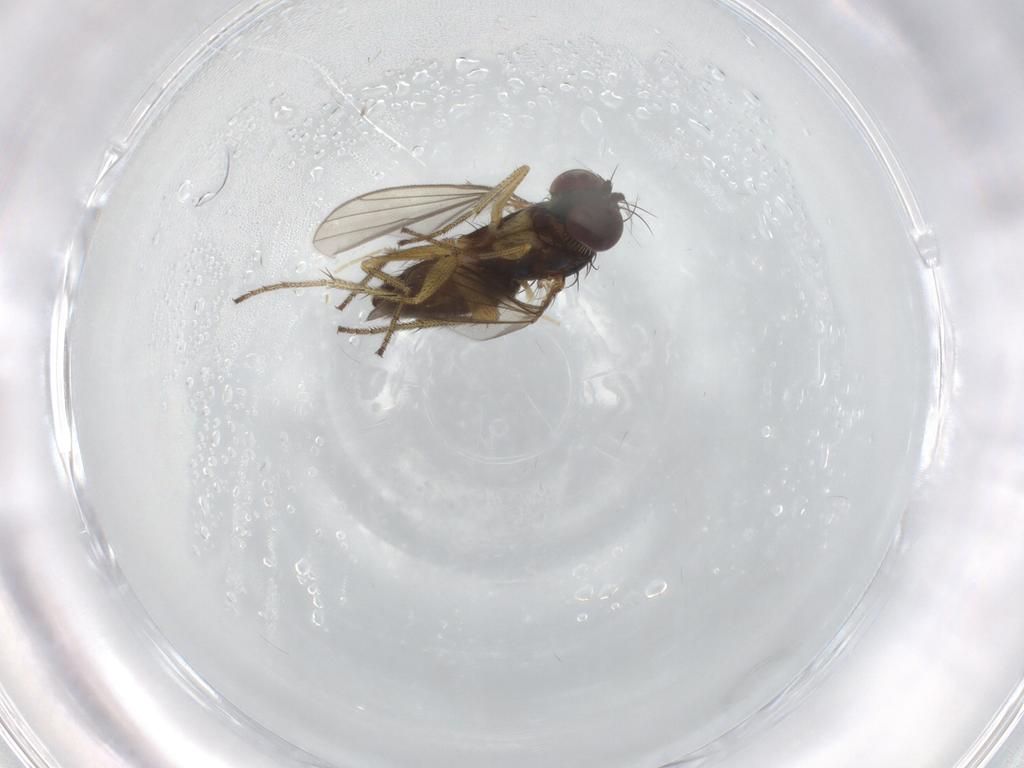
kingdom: Animalia
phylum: Arthropoda
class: Insecta
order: Diptera
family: Dolichopodidae
